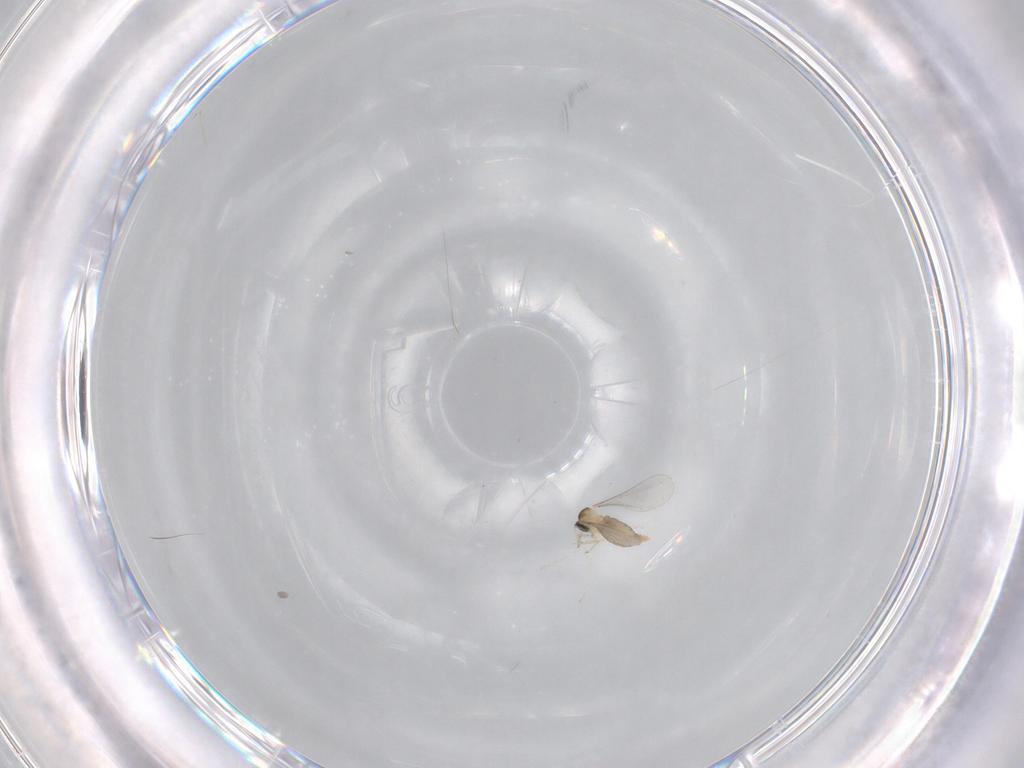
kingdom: Animalia
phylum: Arthropoda
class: Insecta
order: Diptera
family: Cecidomyiidae
